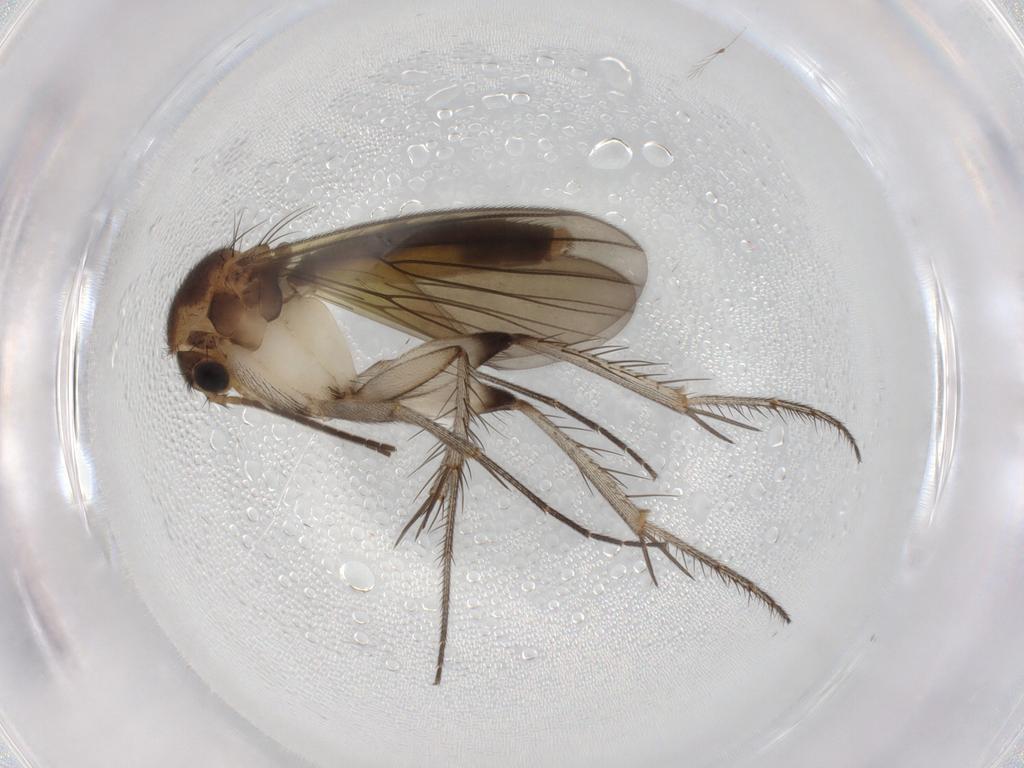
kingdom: Animalia
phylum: Arthropoda
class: Insecta
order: Diptera
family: Mycetophilidae
